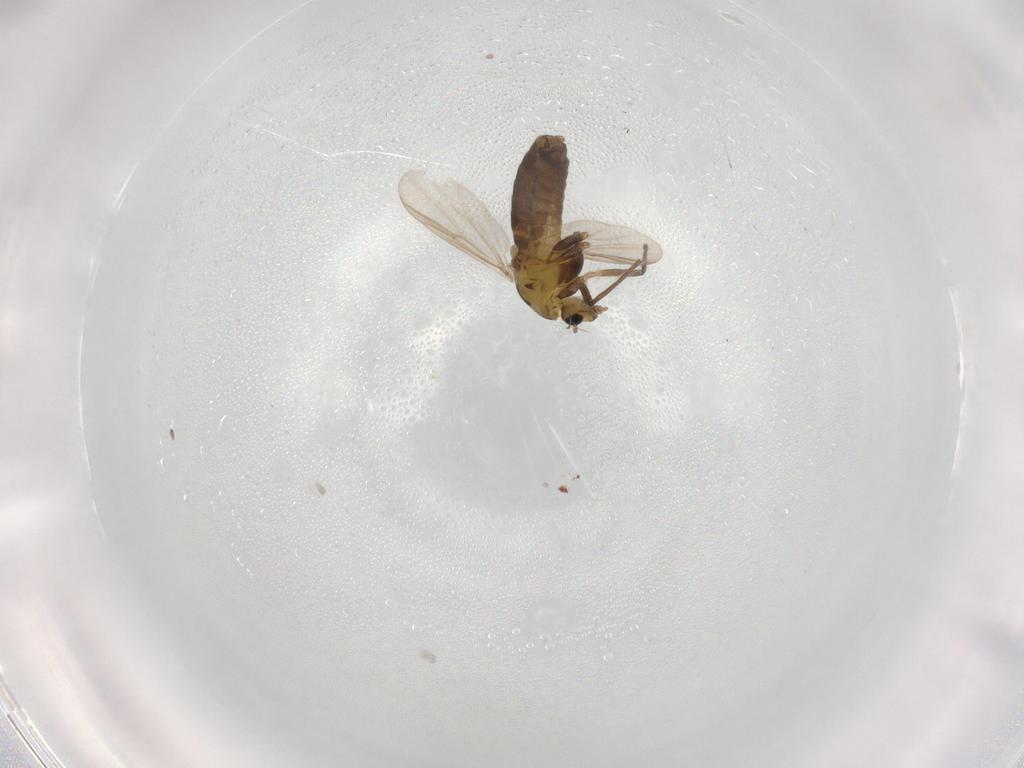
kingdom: Animalia
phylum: Arthropoda
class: Insecta
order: Diptera
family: Chironomidae
